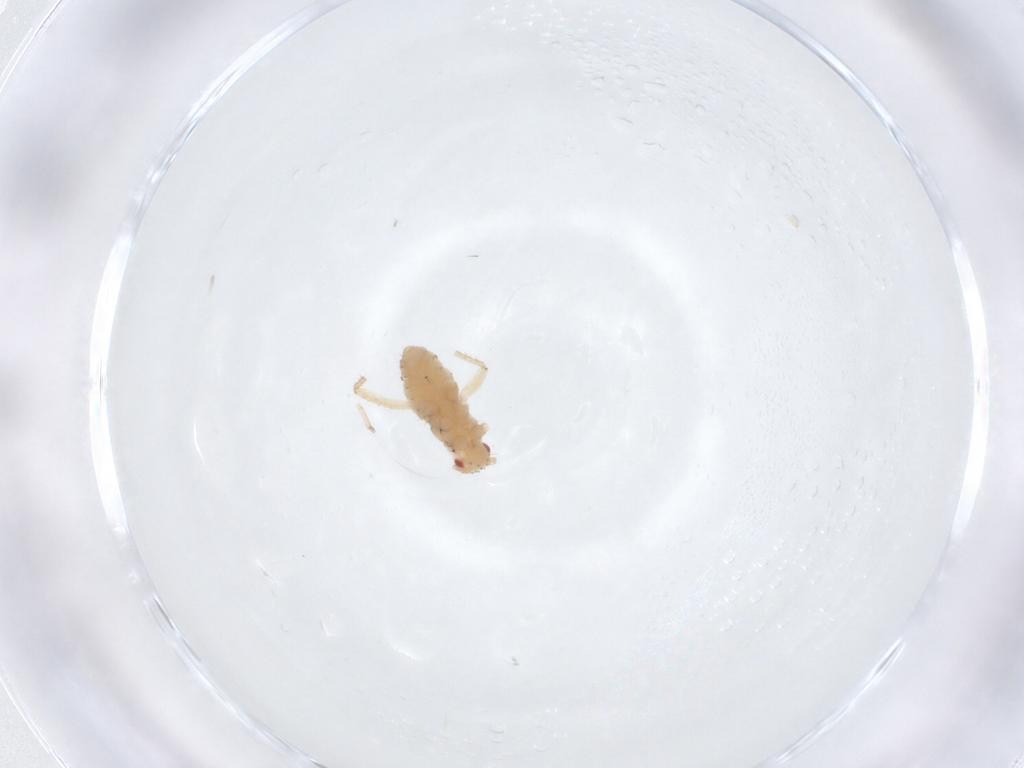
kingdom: Animalia
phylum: Arthropoda
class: Insecta
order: Hemiptera
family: Aphididae
